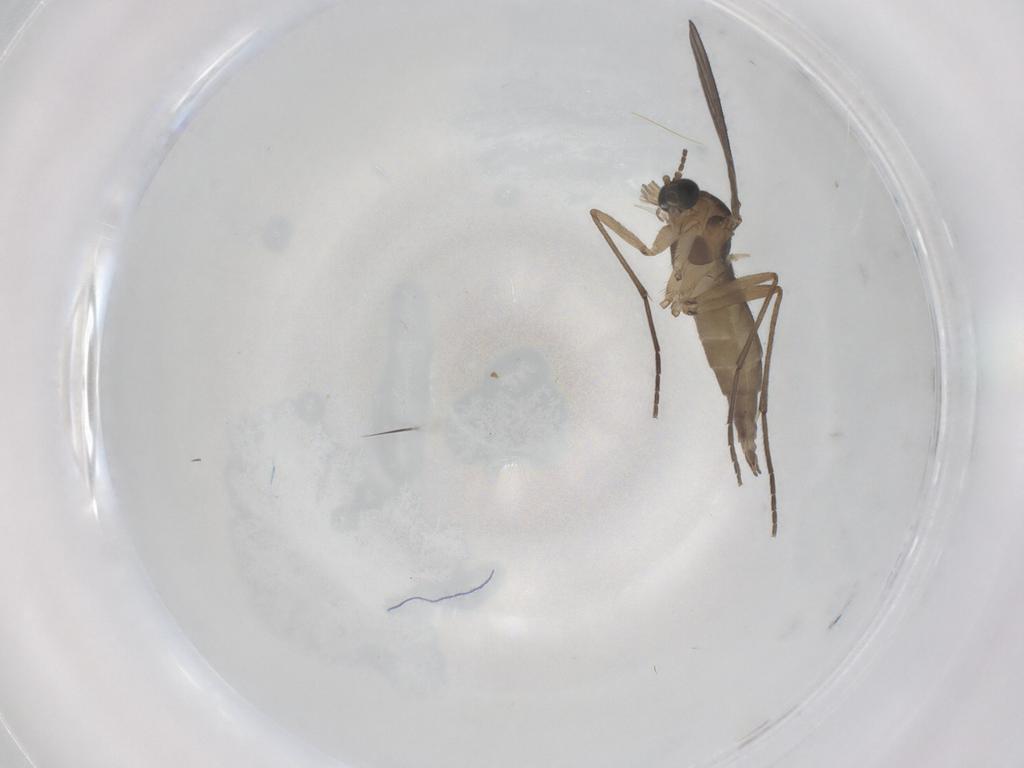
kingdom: Animalia
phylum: Arthropoda
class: Insecta
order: Diptera
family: Sciaridae
